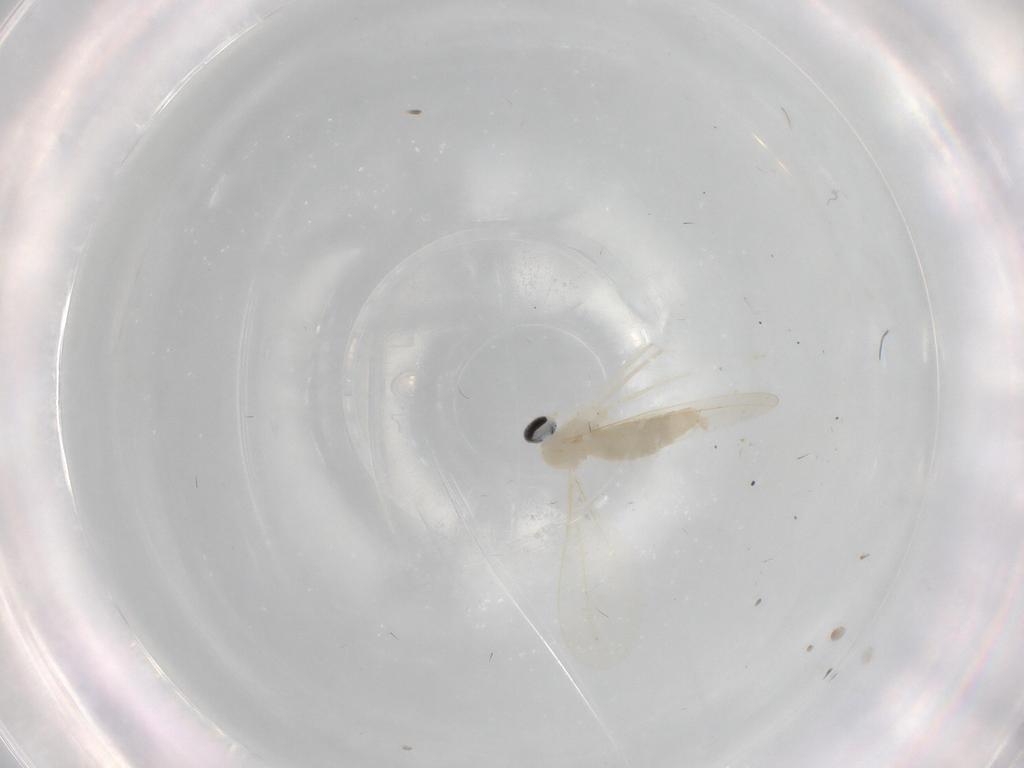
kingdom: Animalia
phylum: Arthropoda
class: Insecta
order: Diptera
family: Cecidomyiidae
